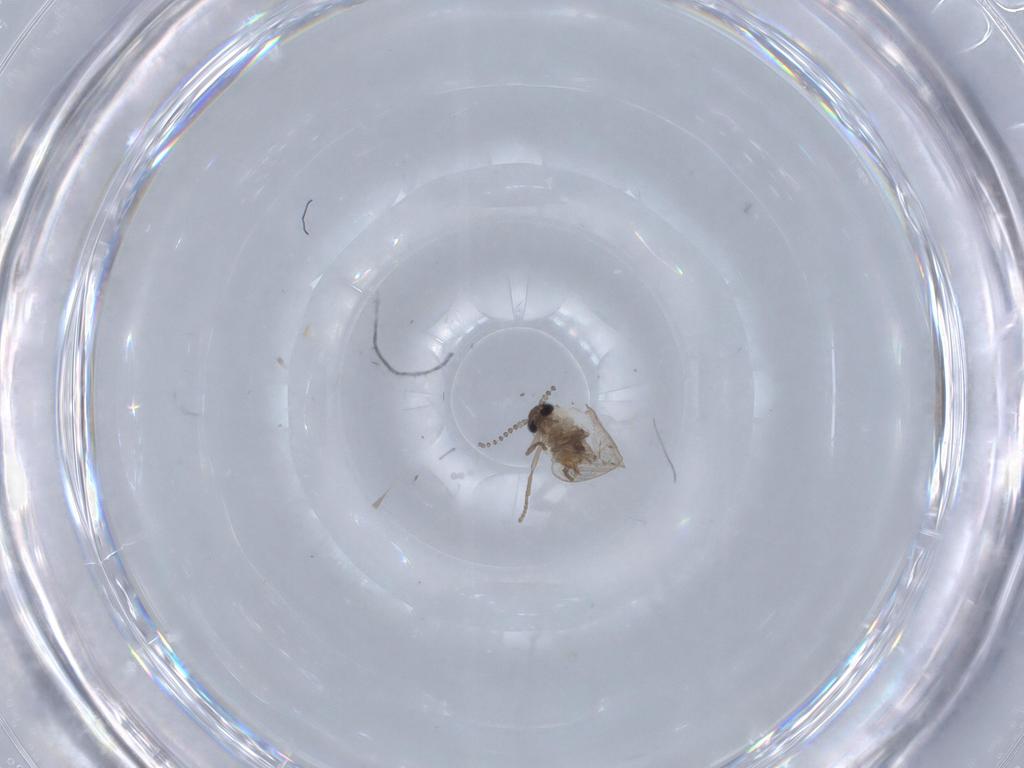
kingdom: Animalia
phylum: Arthropoda
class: Insecta
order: Diptera
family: Psychodidae
